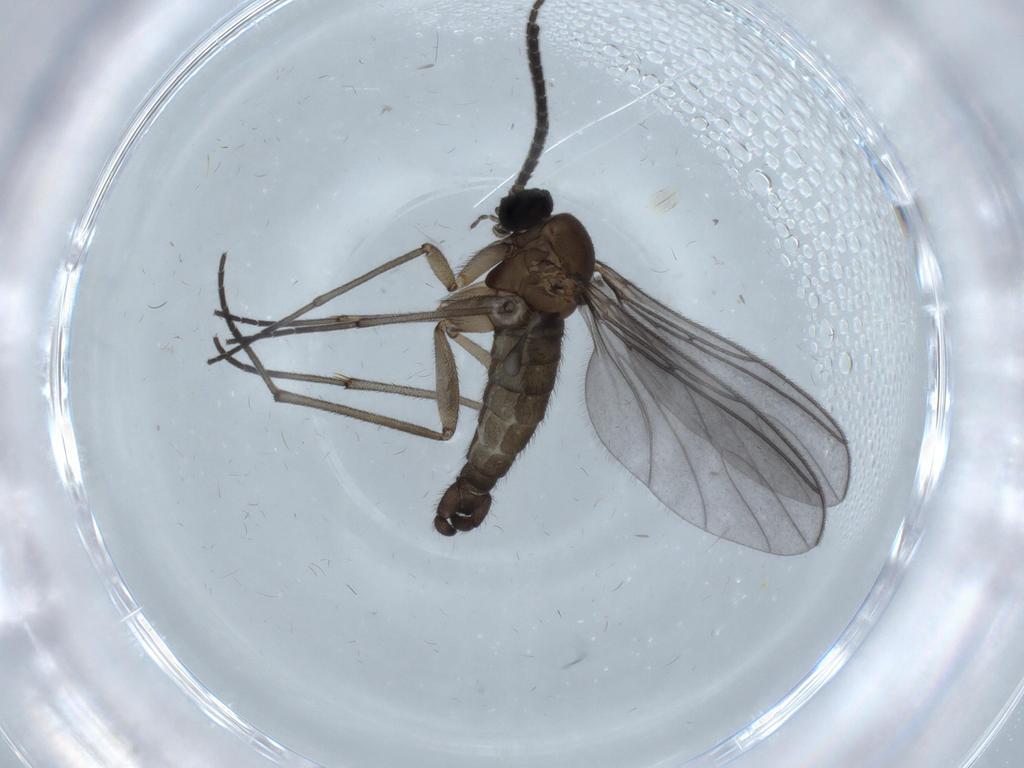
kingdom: Animalia
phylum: Arthropoda
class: Insecta
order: Diptera
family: Sciaridae
